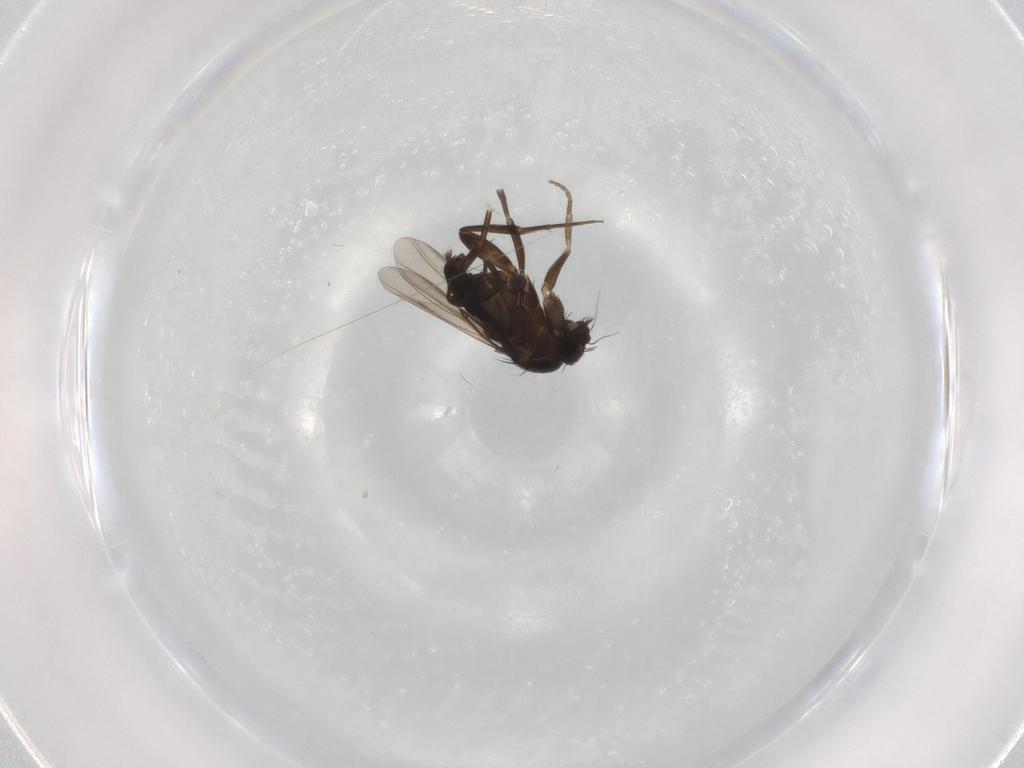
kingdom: Animalia
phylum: Arthropoda
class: Insecta
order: Diptera
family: Phoridae
